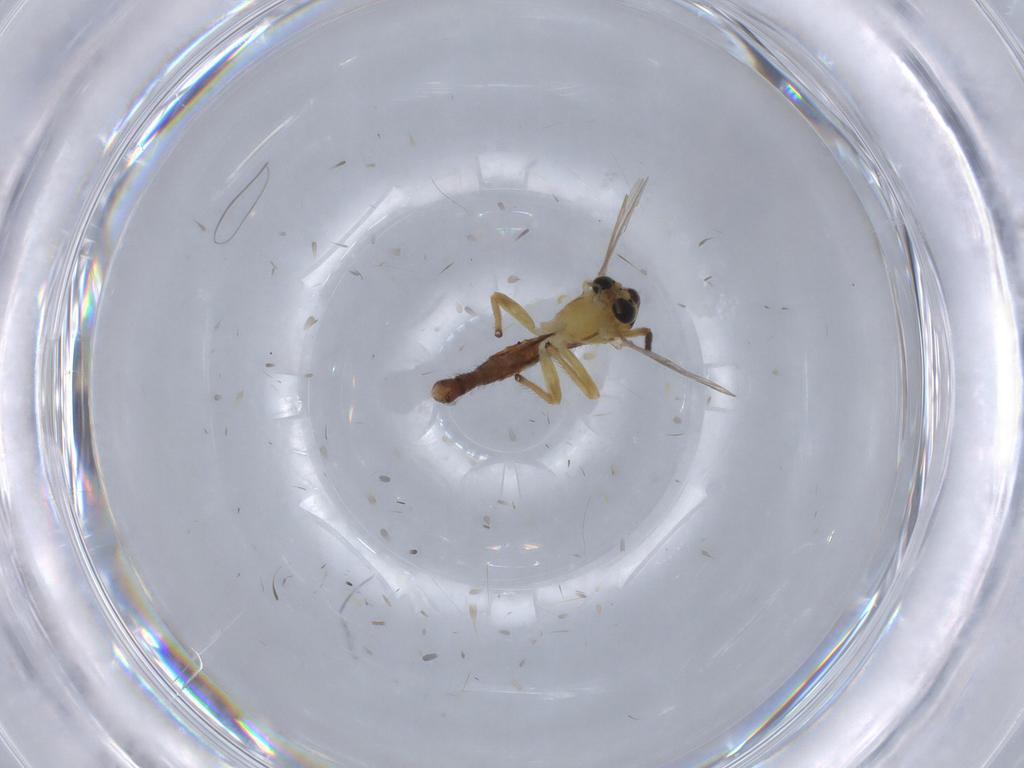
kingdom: Animalia
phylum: Arthropoda
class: Insecta
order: Diptera
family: Chironomidae
